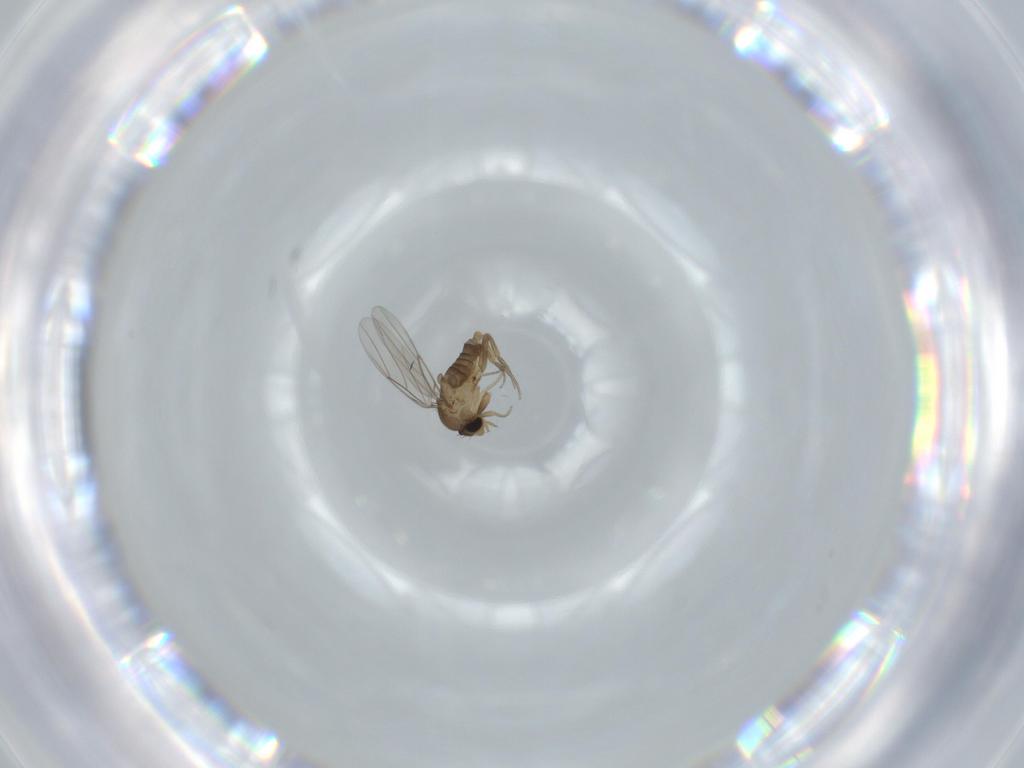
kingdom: Animalia
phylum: Arthropoda
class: Insecta
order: Diptera
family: Phoridae
